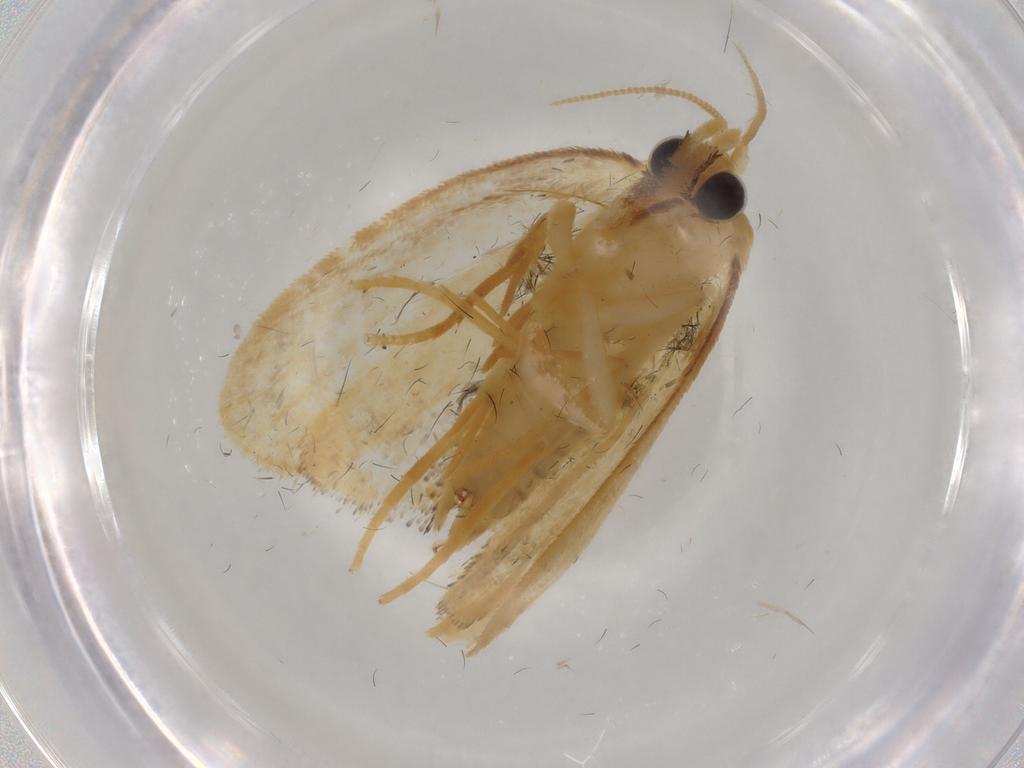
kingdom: Animalia
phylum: Arthropoda
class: Insecta
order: Lepidoptera
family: Psychidae
